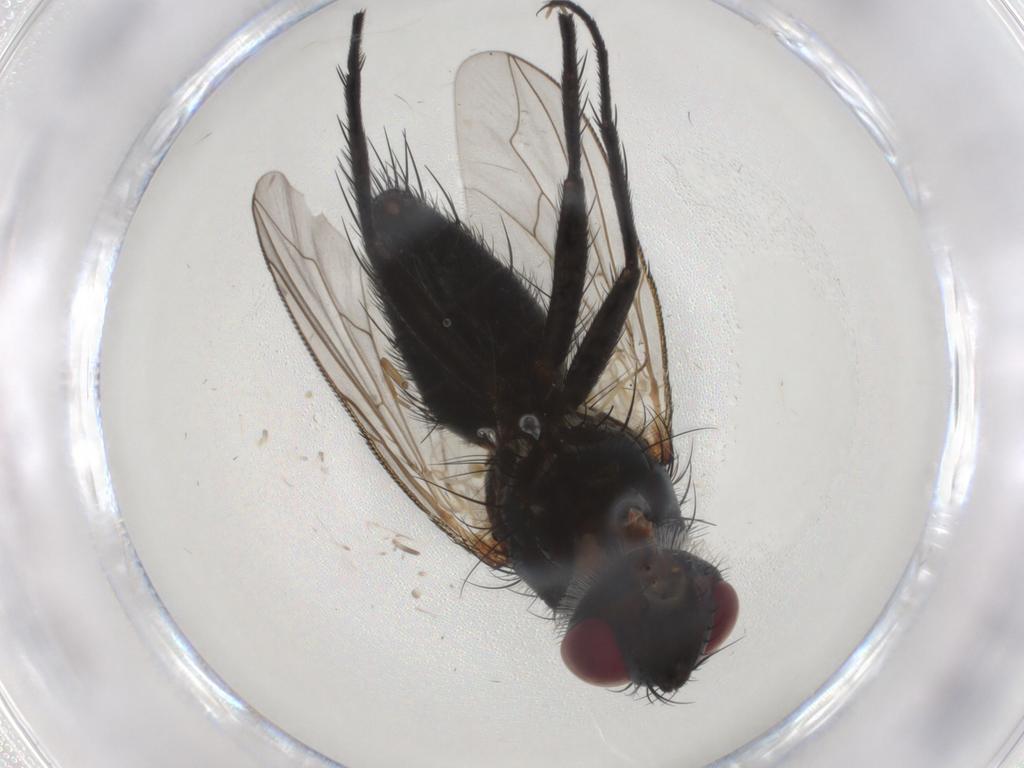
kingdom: Animalia
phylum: Arthropoda
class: Insecta
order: Diptera
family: Tachinidae
